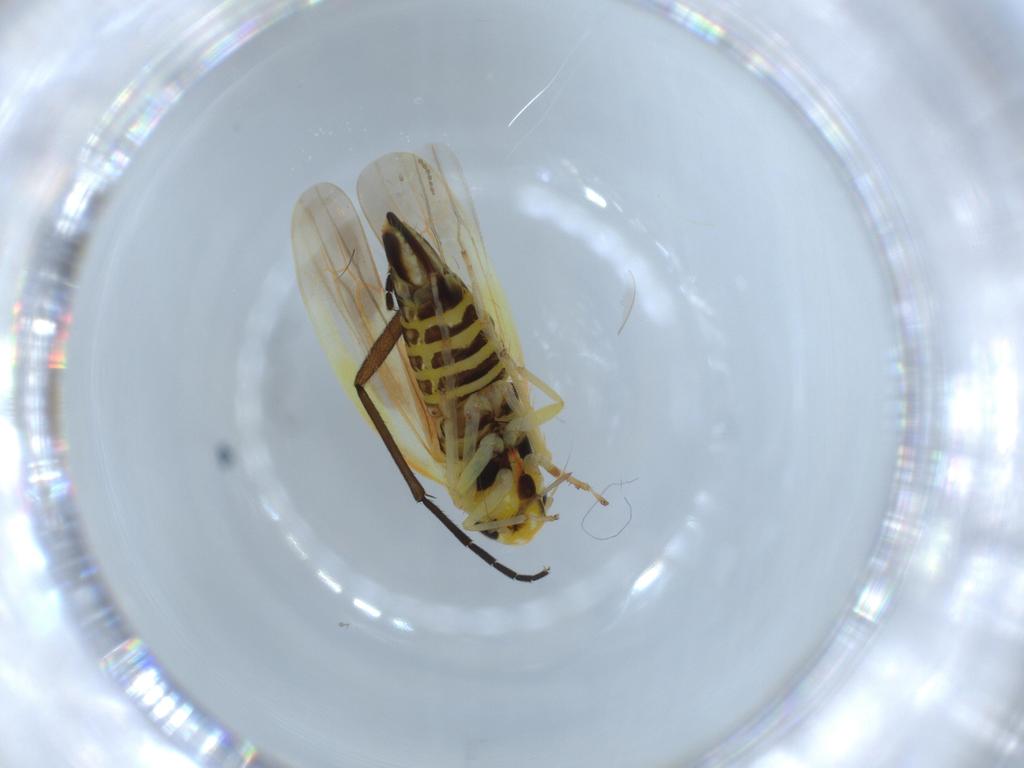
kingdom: Animalia
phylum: Arthropoda
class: Insecta
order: Hemiptera
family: Cicadellidae
